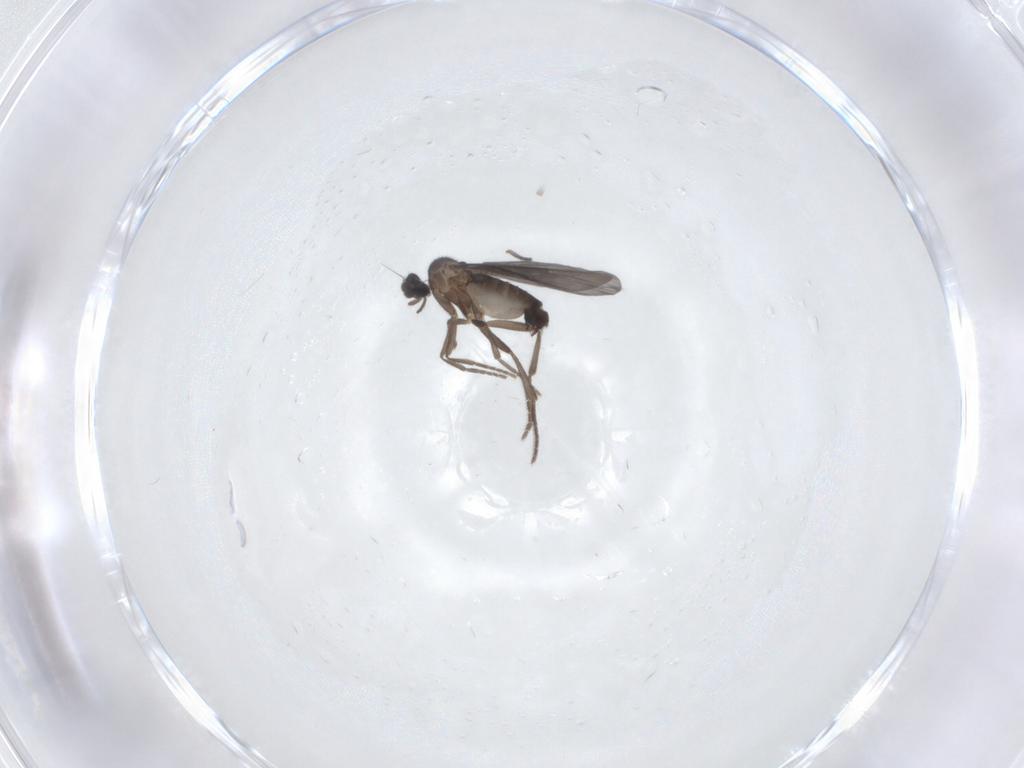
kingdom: Animalia
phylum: Arthropoda
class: Insecta
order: Diptera
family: Phoridae
